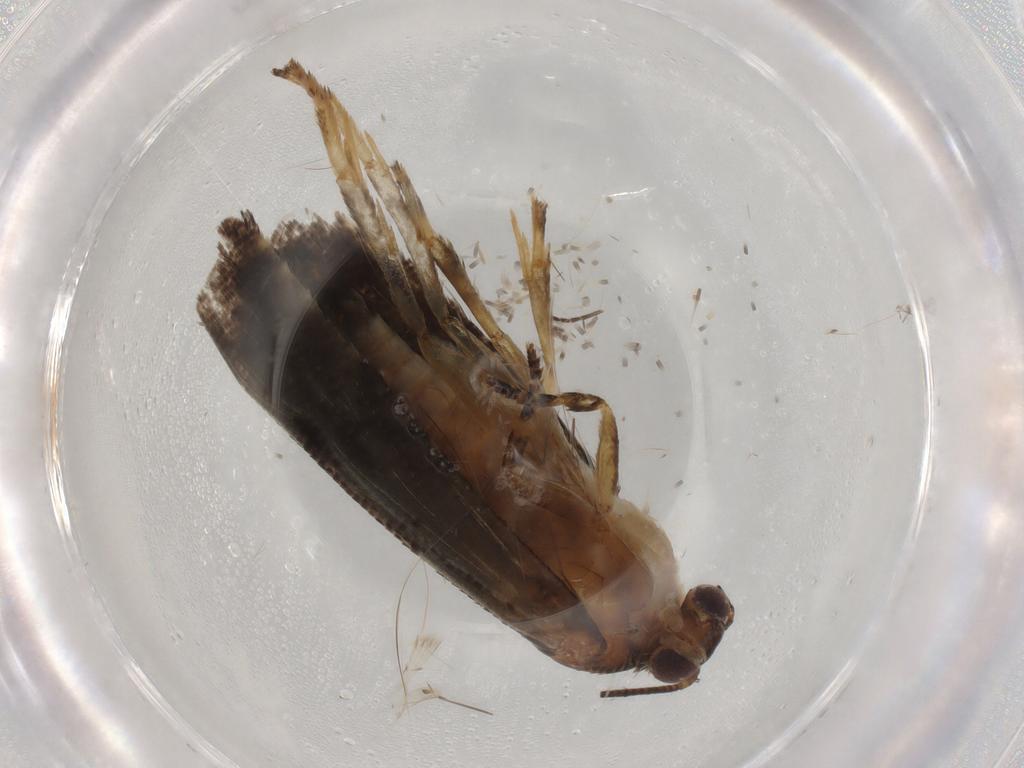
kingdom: Animalia
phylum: Arthropoda
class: Insecta
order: Lepidoptera
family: Tortricidae
